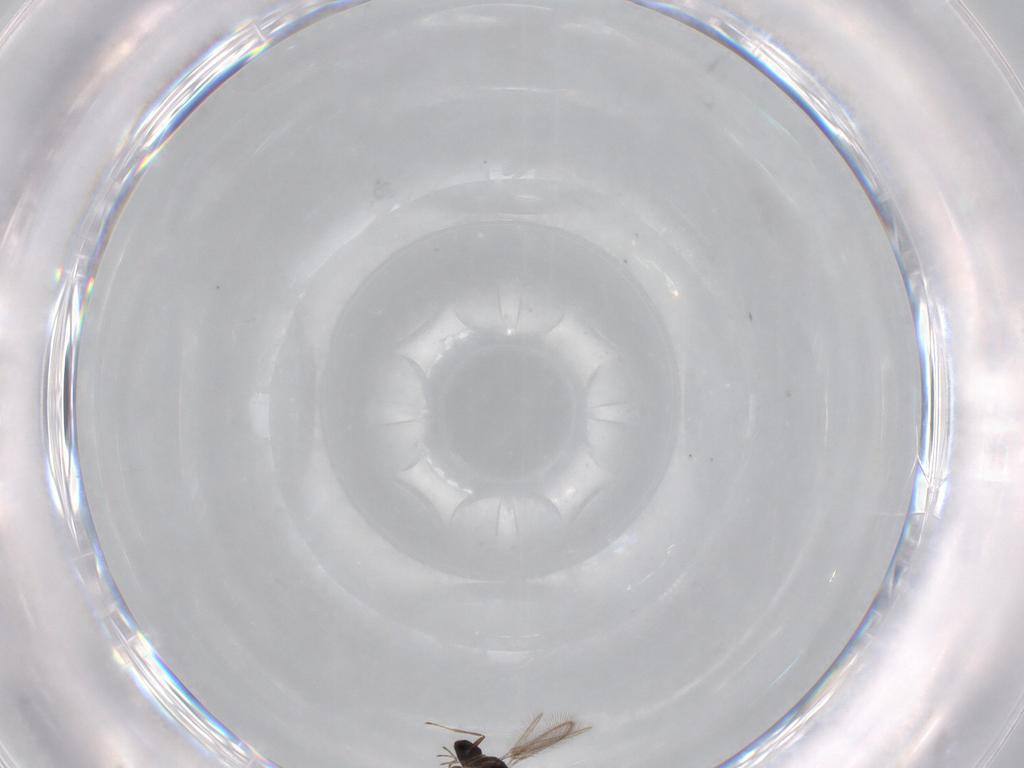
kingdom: Animalia
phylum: Arthropoda
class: Insecta
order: Hymenoptera
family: Mymaridae
